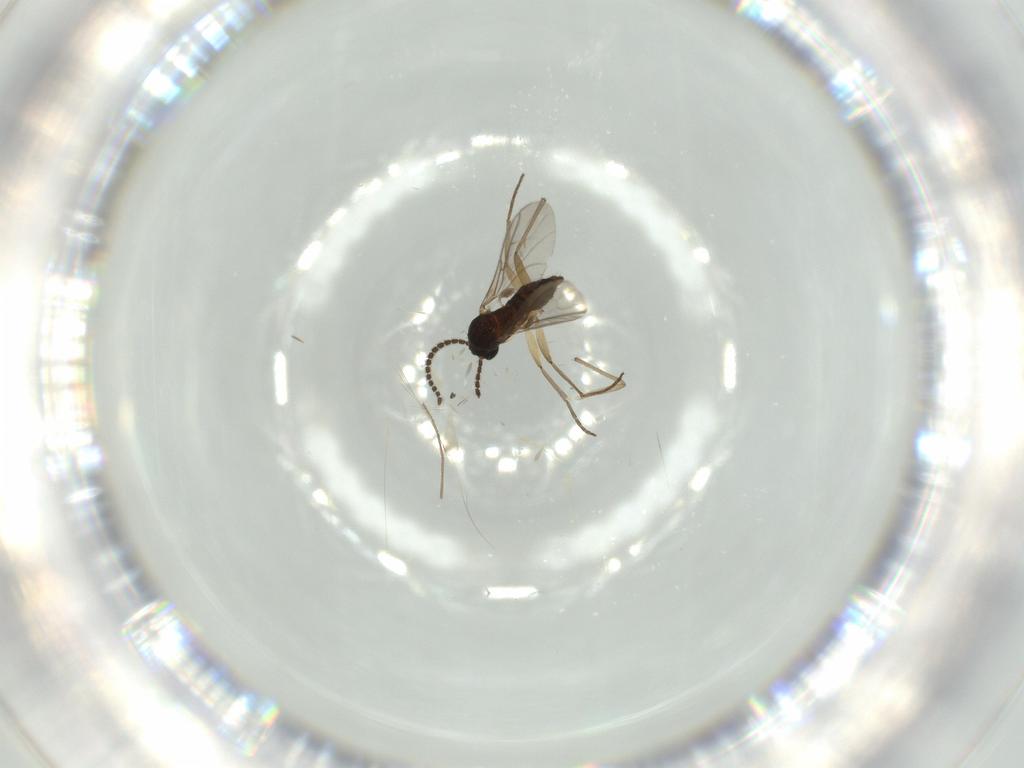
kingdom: Animalia
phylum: Arthropoda
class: Insecta
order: Diptera
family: Sciaridae
